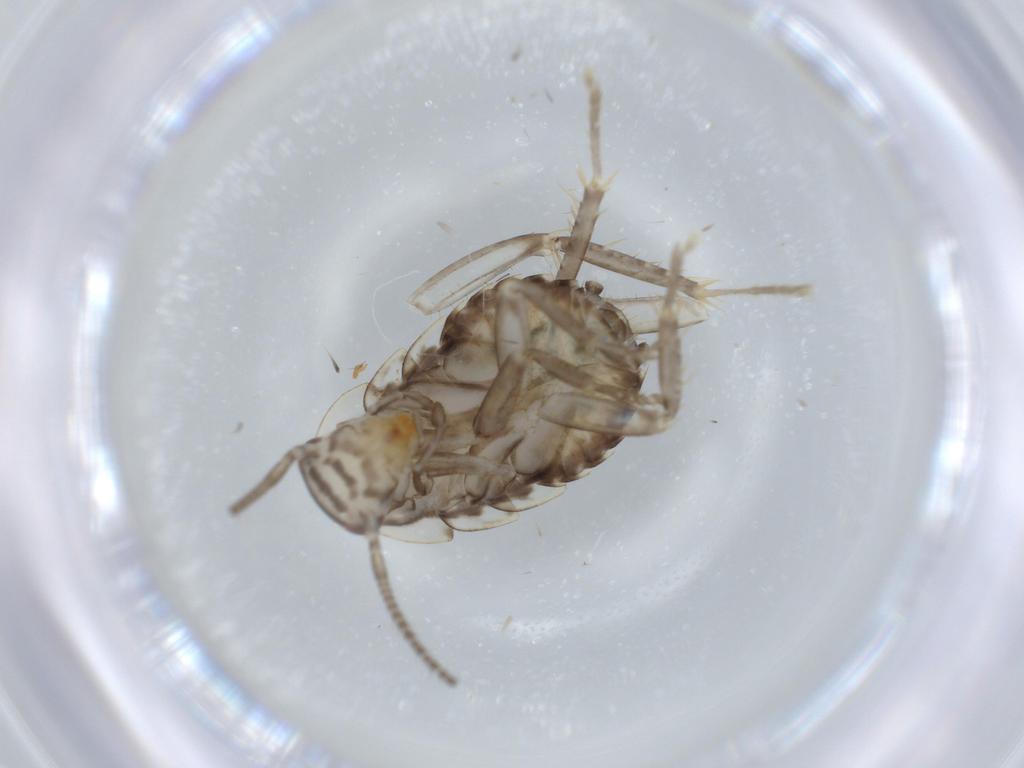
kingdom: Animalia
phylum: Arthropoda
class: Insecta
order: Blattodea
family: Ectobiidae
